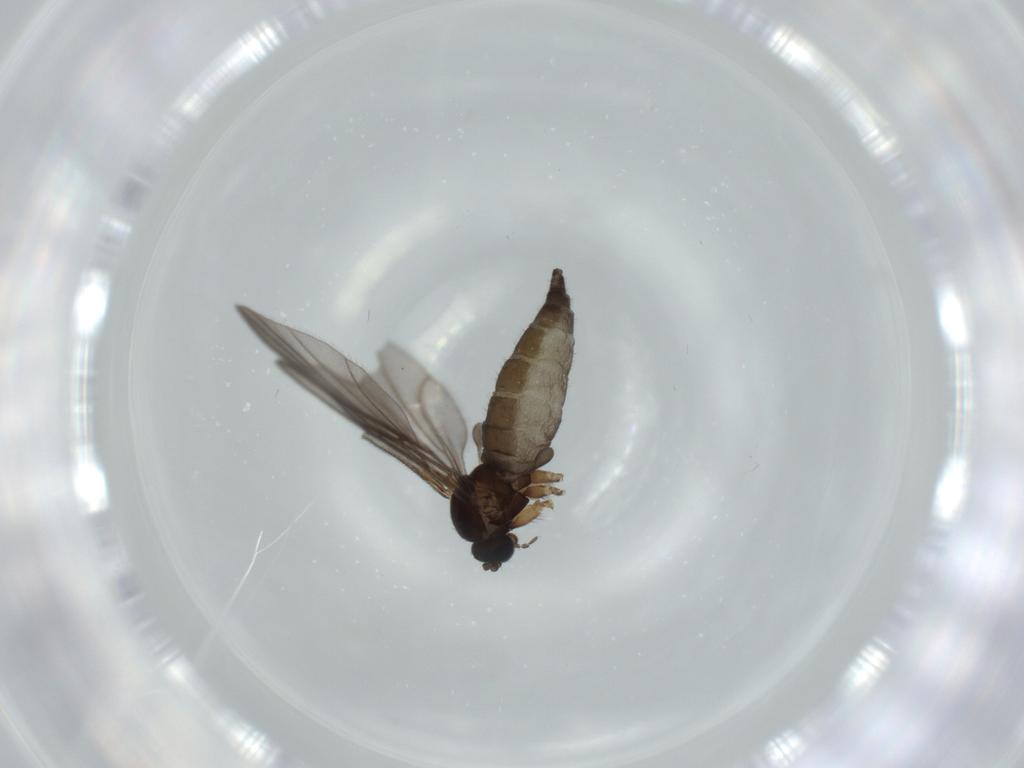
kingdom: Animalia
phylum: Arthropoda
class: Insecta
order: Diptera
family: Sciaridae
